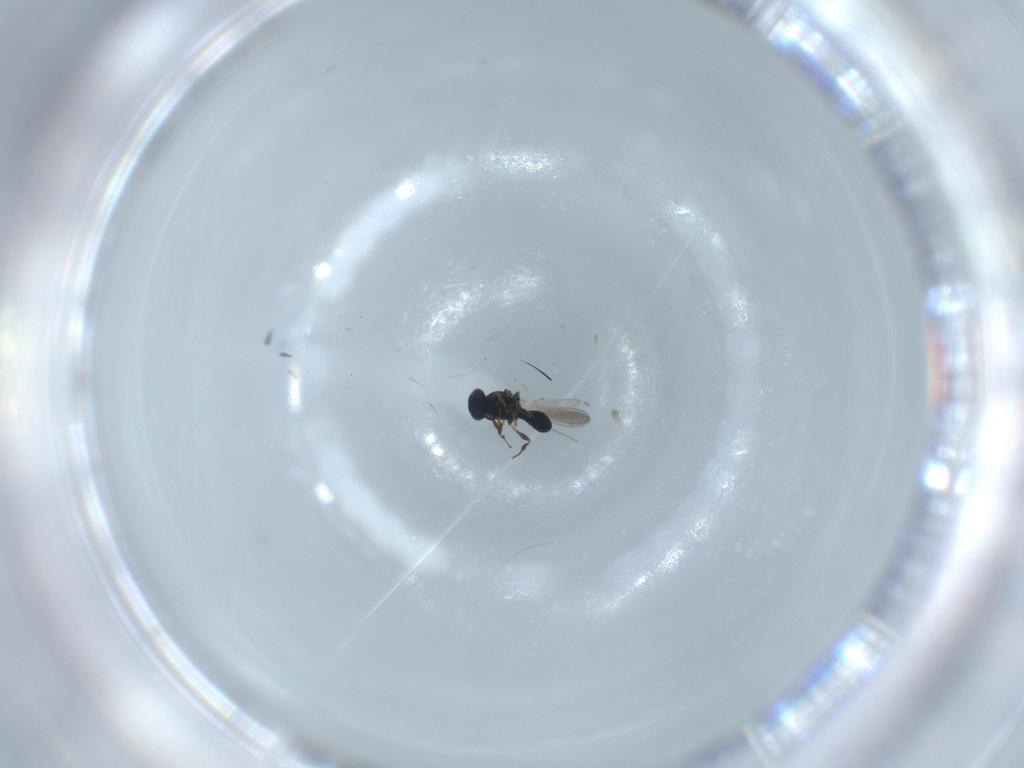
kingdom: Animalia
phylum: Arthropoda
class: Insecta
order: Hymenoptera
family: Platygastridae
